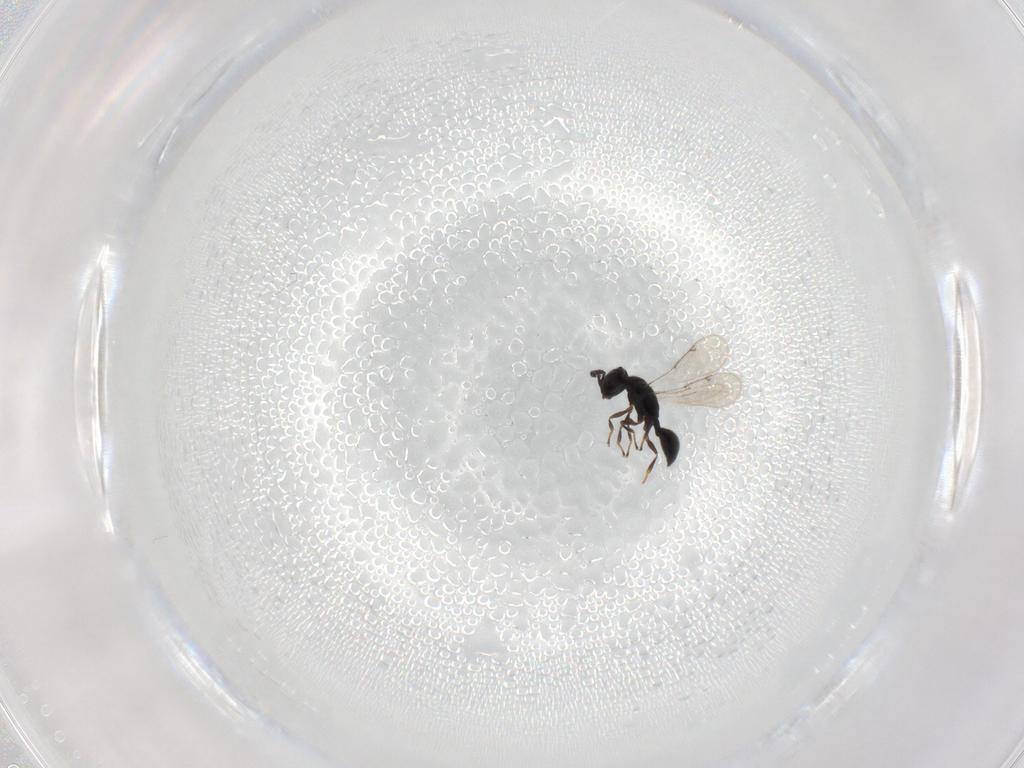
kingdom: Animalia
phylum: Arthropoda
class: Insecta
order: Hymenoptera
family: Spalangiidae
